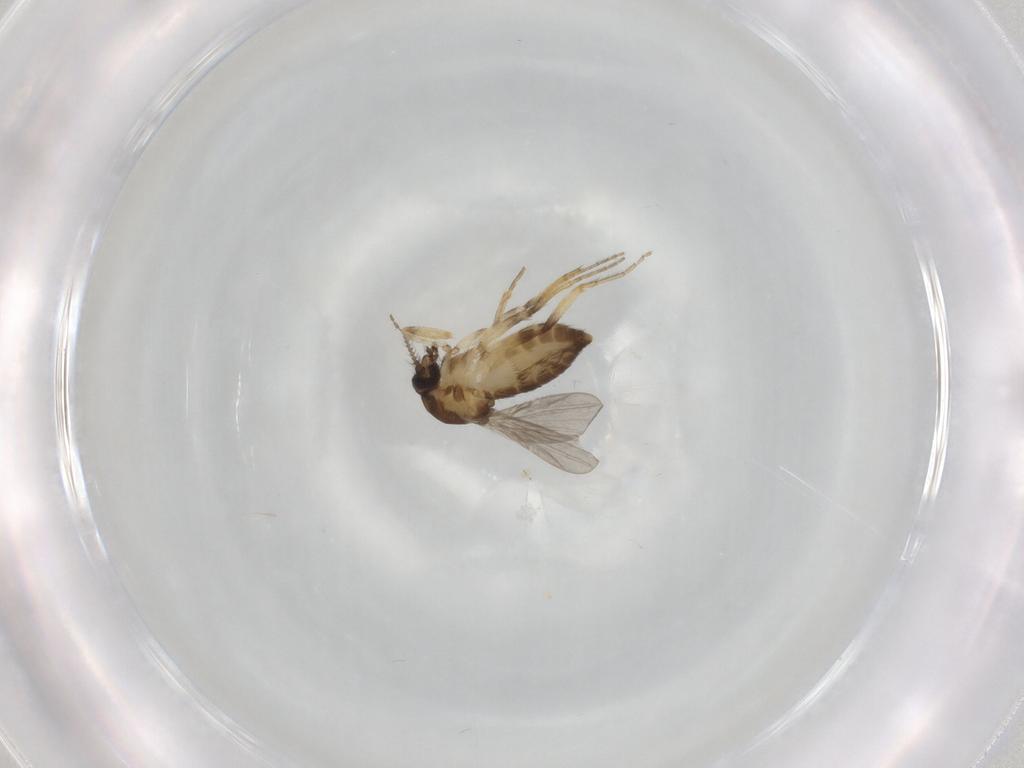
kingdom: Animalia
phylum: Arthropoda
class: Insecta
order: Diptera
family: Ceratopogonidae
